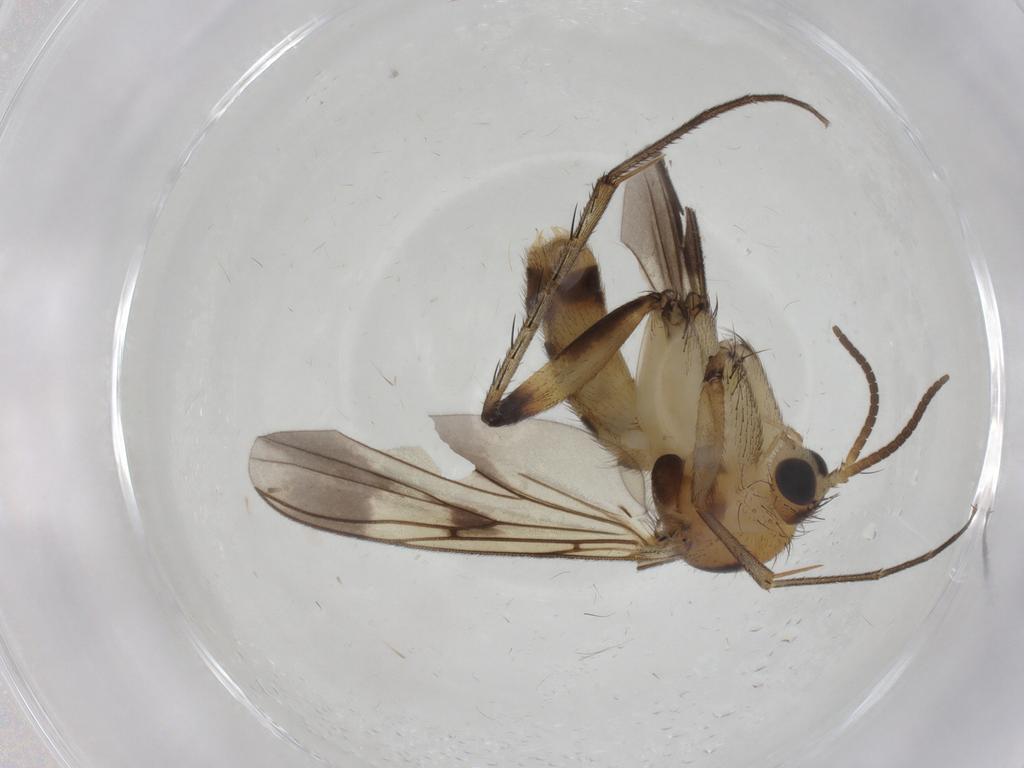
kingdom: Animalia
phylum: Arthropoda
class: Insecta
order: Diptera
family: Mycetophilidae
